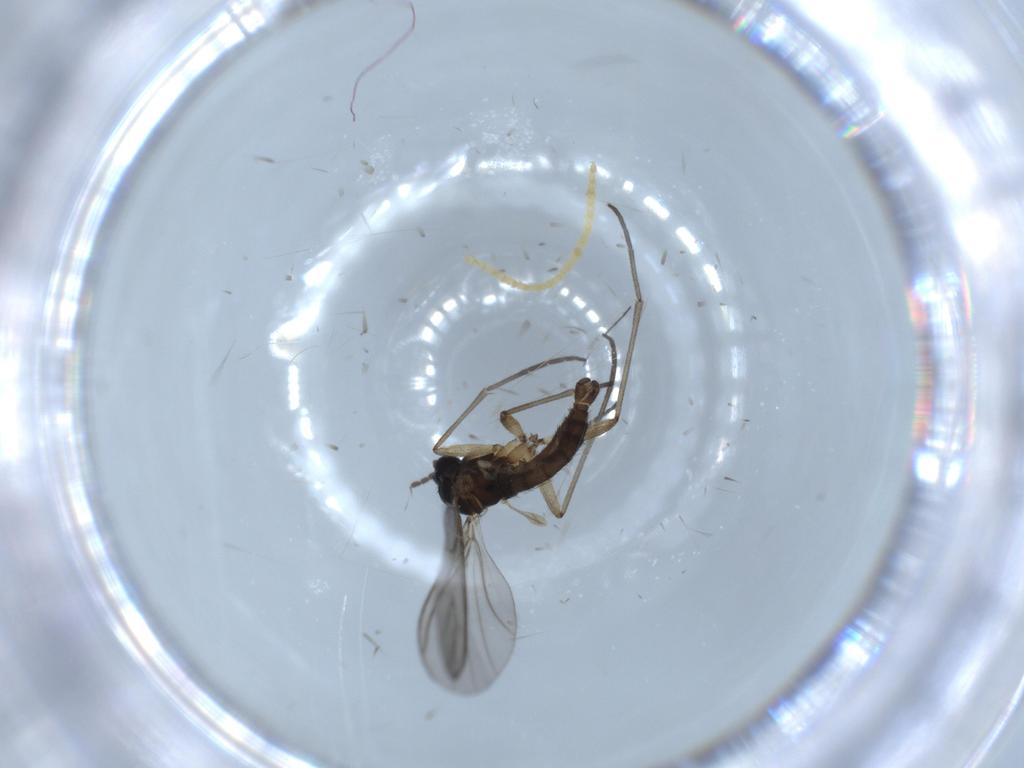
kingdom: Animalia
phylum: Arthropoda
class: Insecta
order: Diptera
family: Sciaridae
